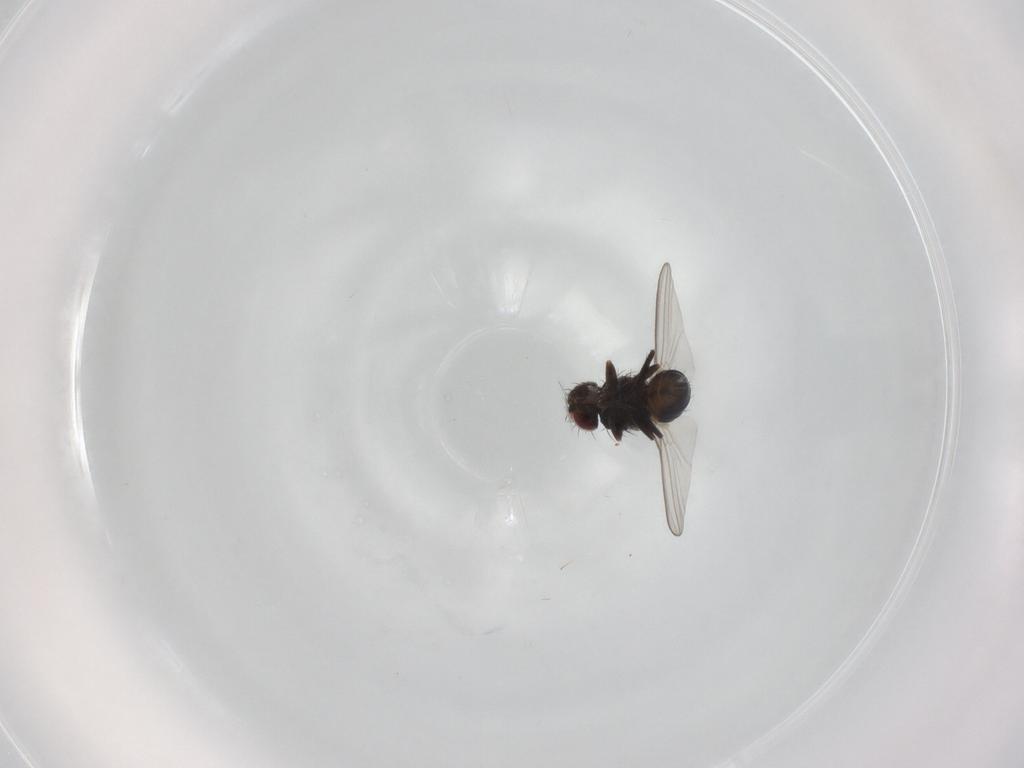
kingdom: Animalia
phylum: Arthropoda
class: Insecta
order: Diptera
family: Carnidae
